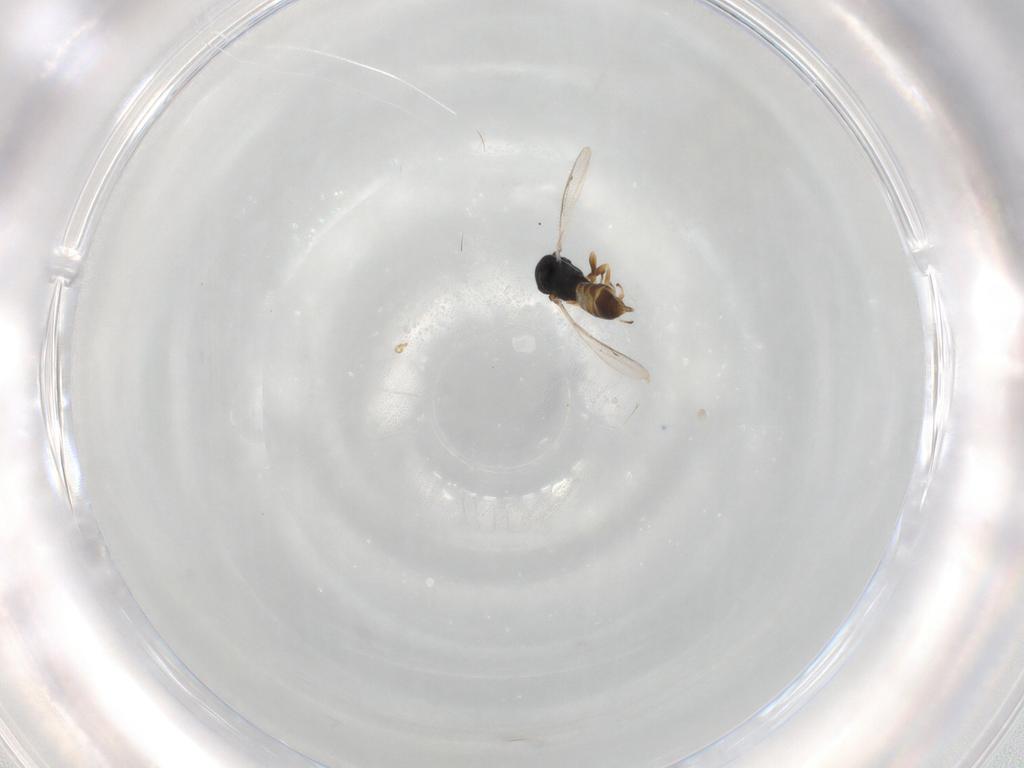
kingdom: Animalia
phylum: Arthropoda
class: Insecta
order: Hymenoptera
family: Pteromalidae
